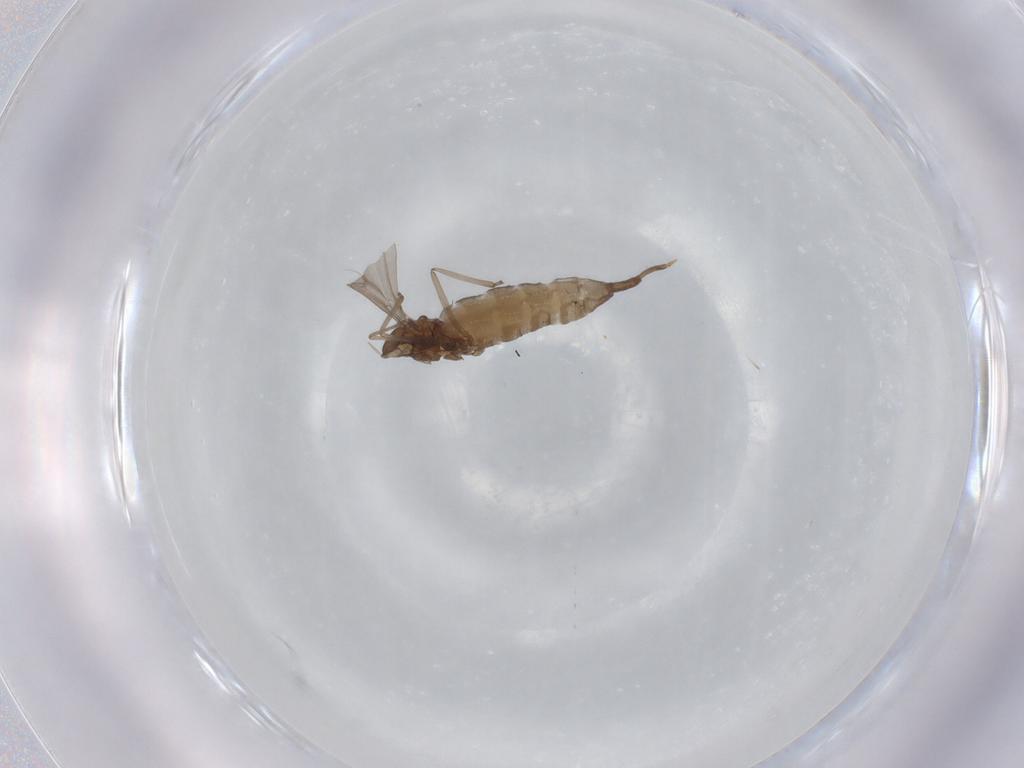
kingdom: Animalia
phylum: Arthropoda
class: Insecta
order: Diptera
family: Cecidomyiidae
